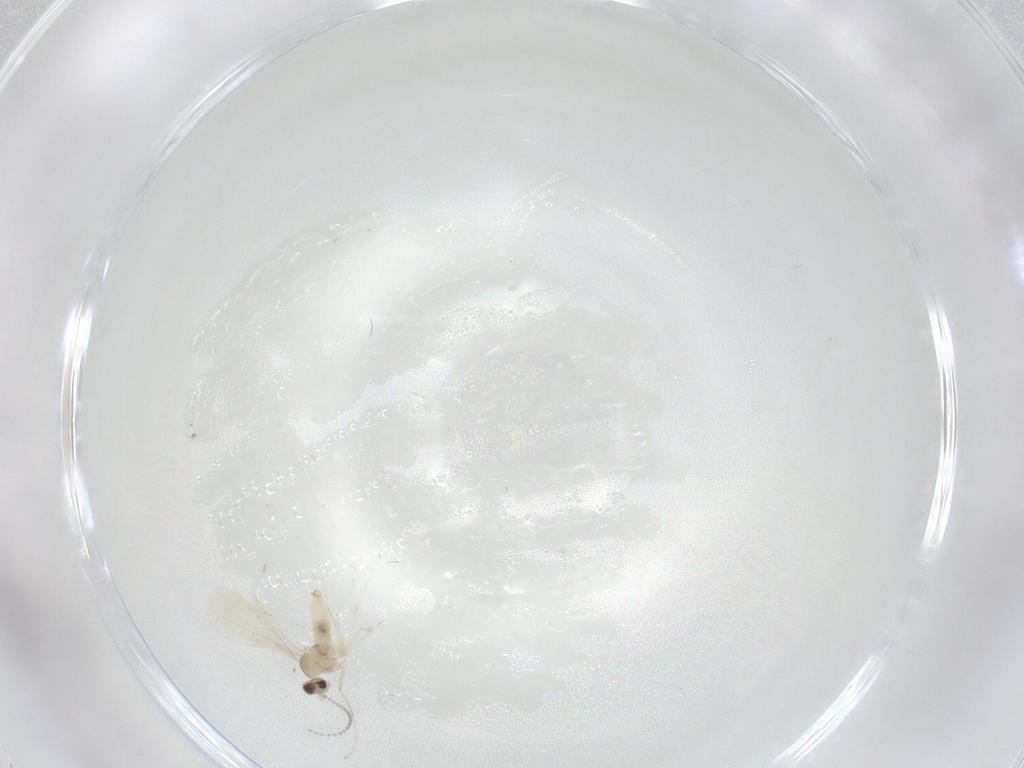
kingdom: Animalia
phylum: Arthropoda
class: Insecta
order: Diptera
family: Cecidomyiidae
